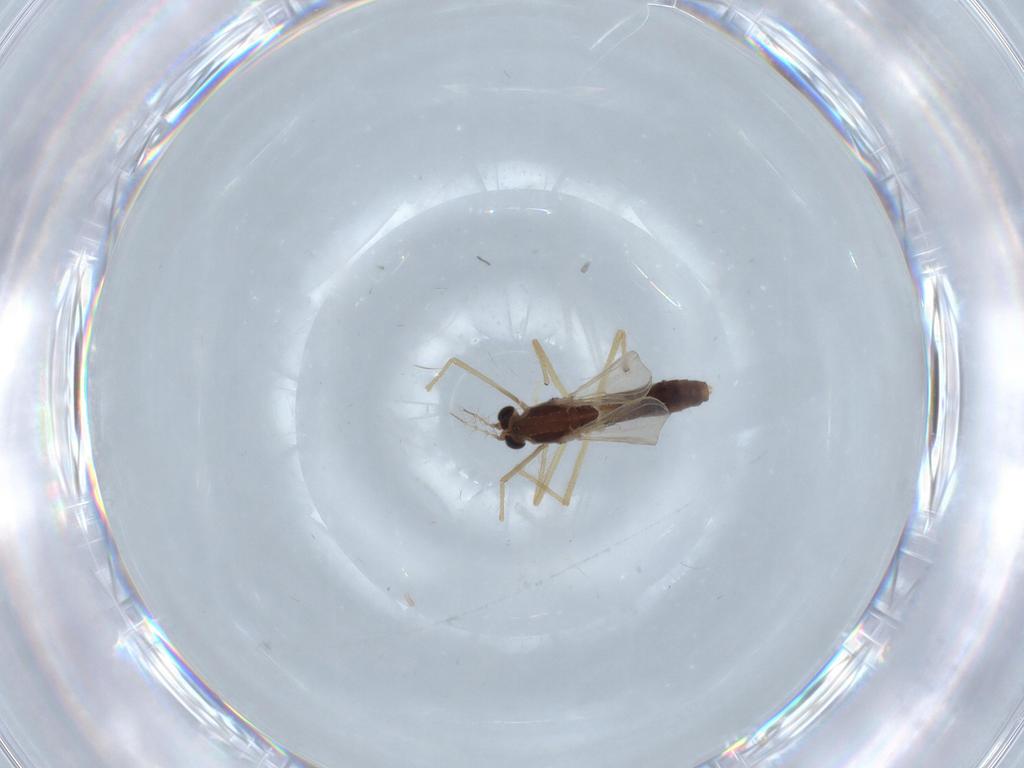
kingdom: Animalia
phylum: Arthropoda
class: Insecta
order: Diptera
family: Chironomidae
